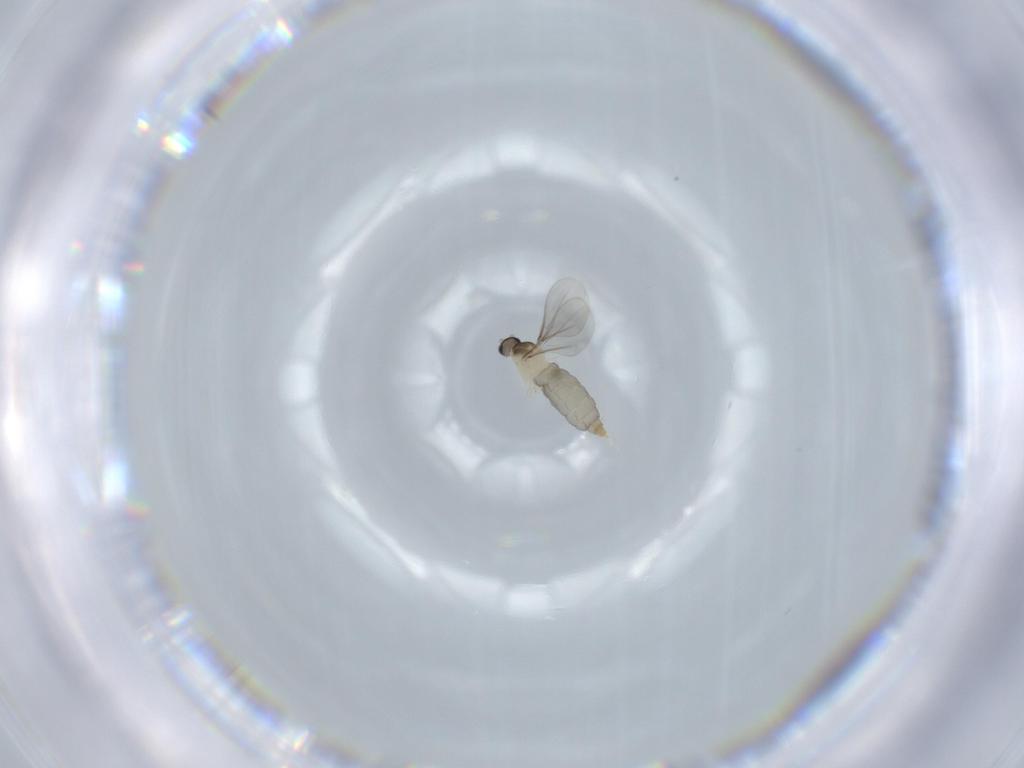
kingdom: Animalia
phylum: Arthropoda
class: Insecta
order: Diptera
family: Chironomidae
